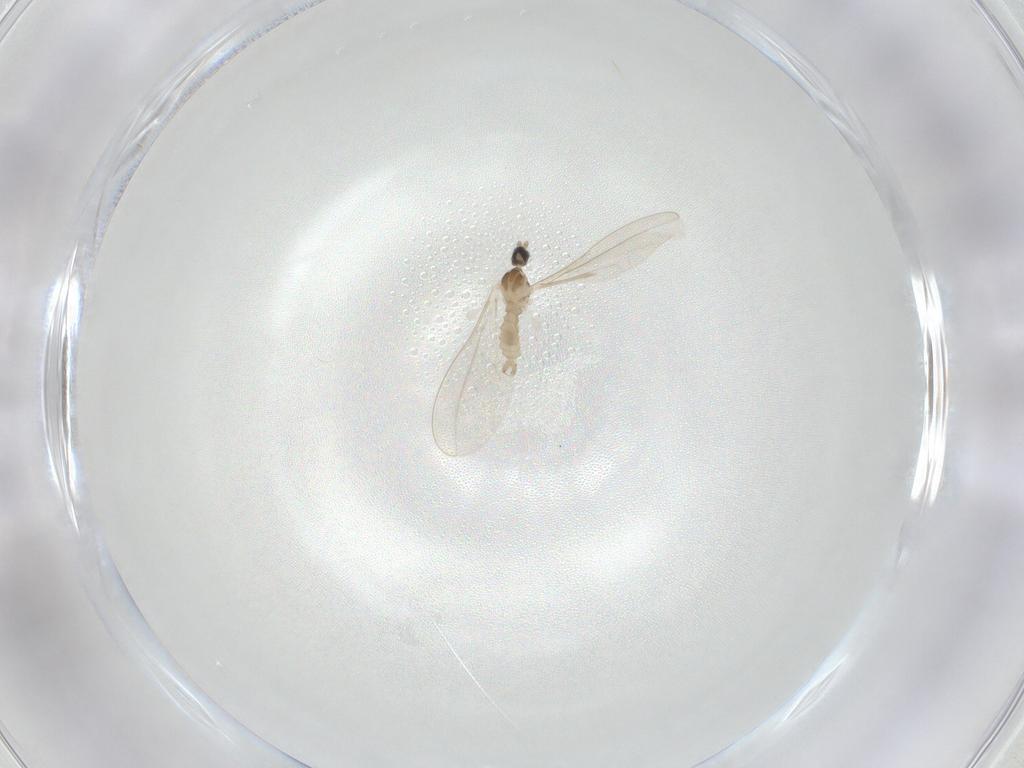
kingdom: Animalia
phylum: Arthropoda
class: Insecta
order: Diptera
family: Cecidomyiidae
